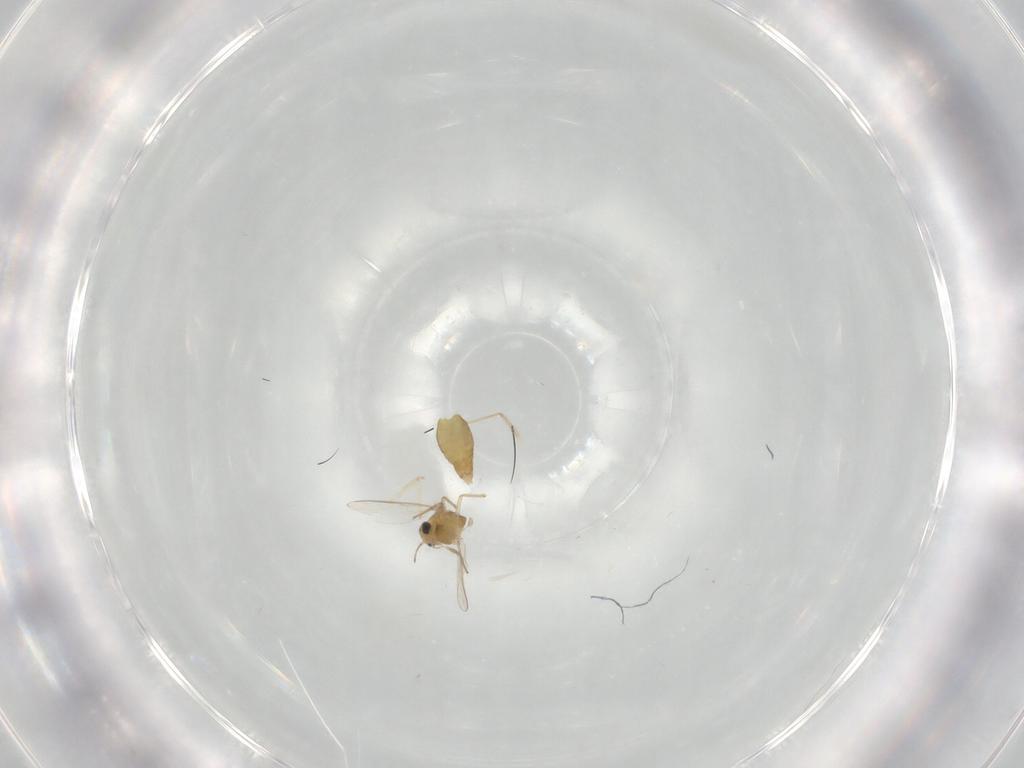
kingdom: Animalia
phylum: Arthropoda
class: Insecta
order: Diptera
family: Chironomidae
